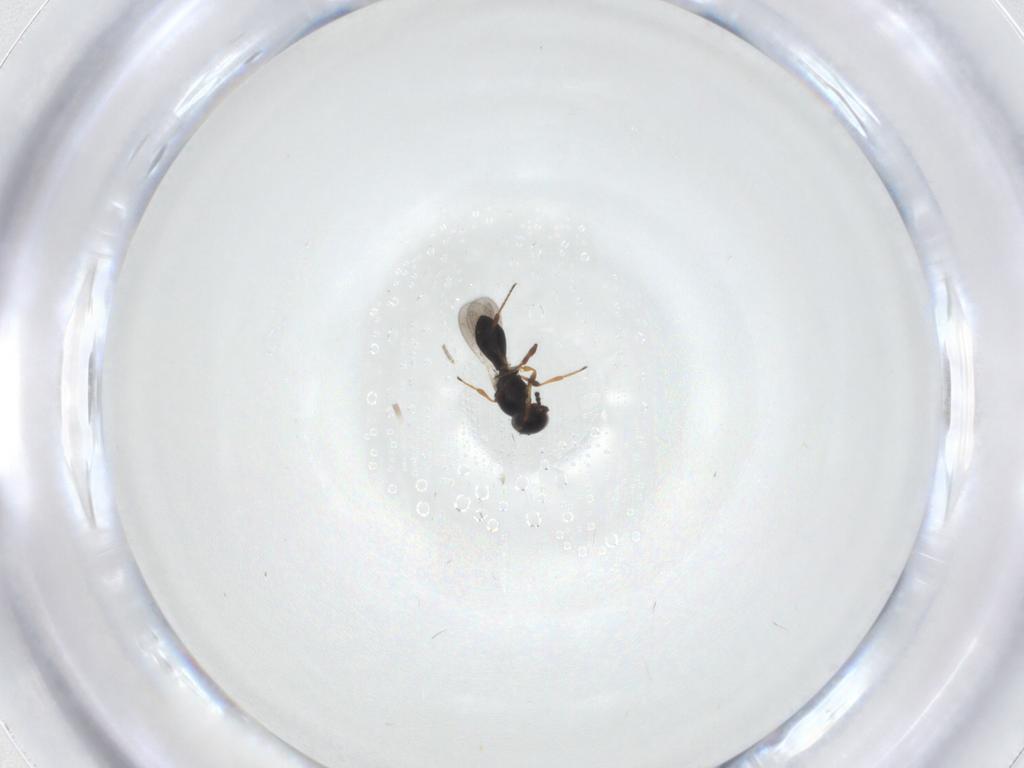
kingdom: Animalia
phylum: Arthropoda
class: Insecta
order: Hymenoptera
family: Platygastridae
